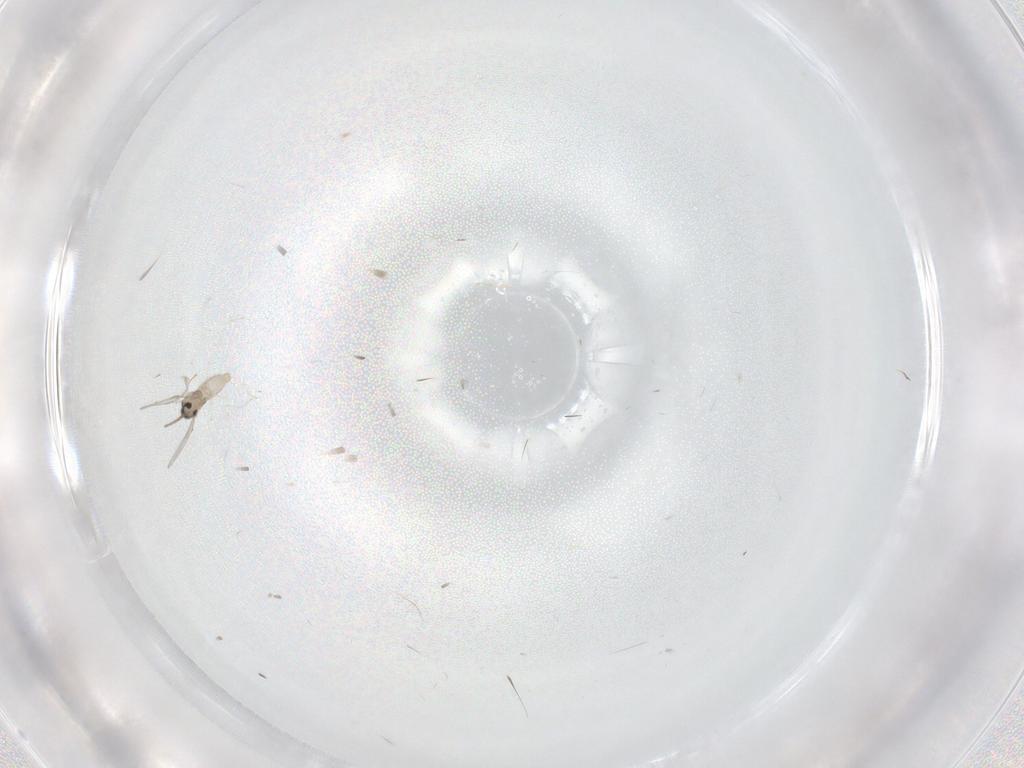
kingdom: Animalia
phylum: Arthropoda
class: Insecta
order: Diptera
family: Cecidomyiidae
